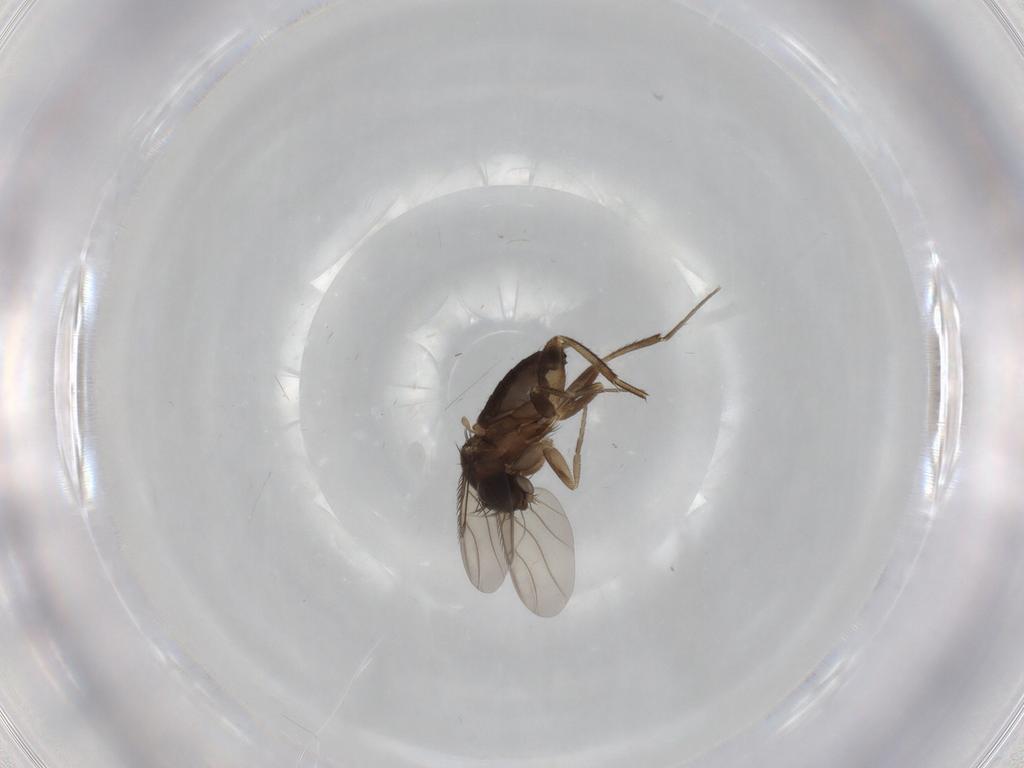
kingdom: Animalia
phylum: Arthropoda
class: Insecta
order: Diptera
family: Phoridae
